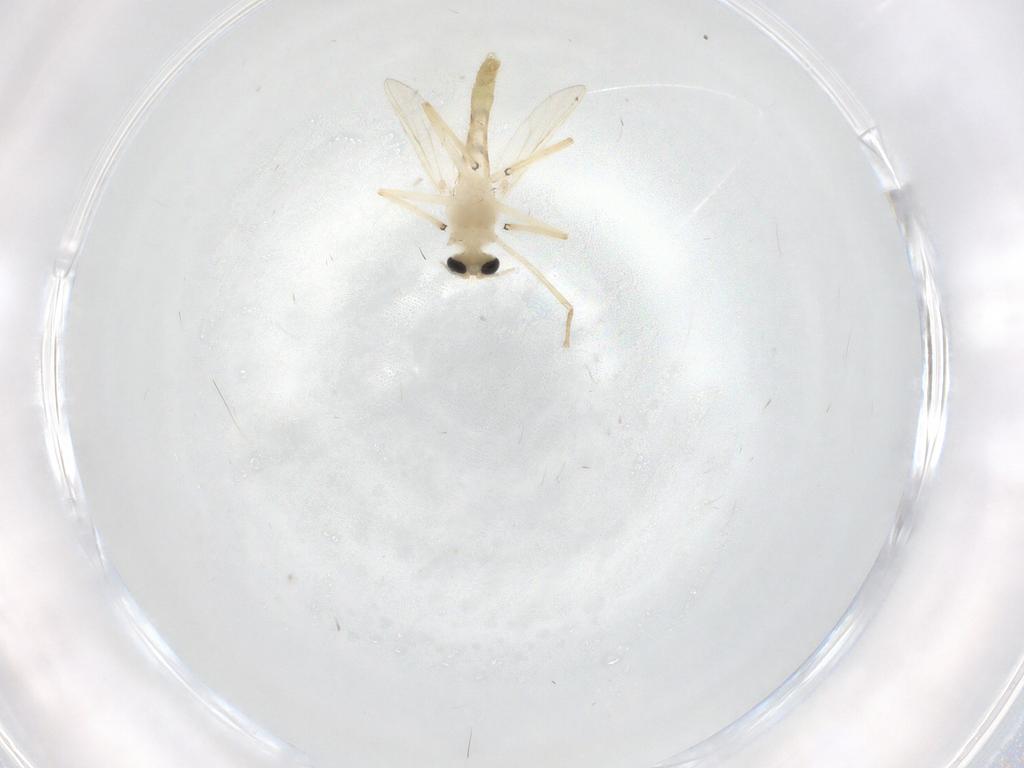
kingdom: Animalia
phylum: Arthropoda
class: Insecta
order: Diptera
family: Chironomidae
